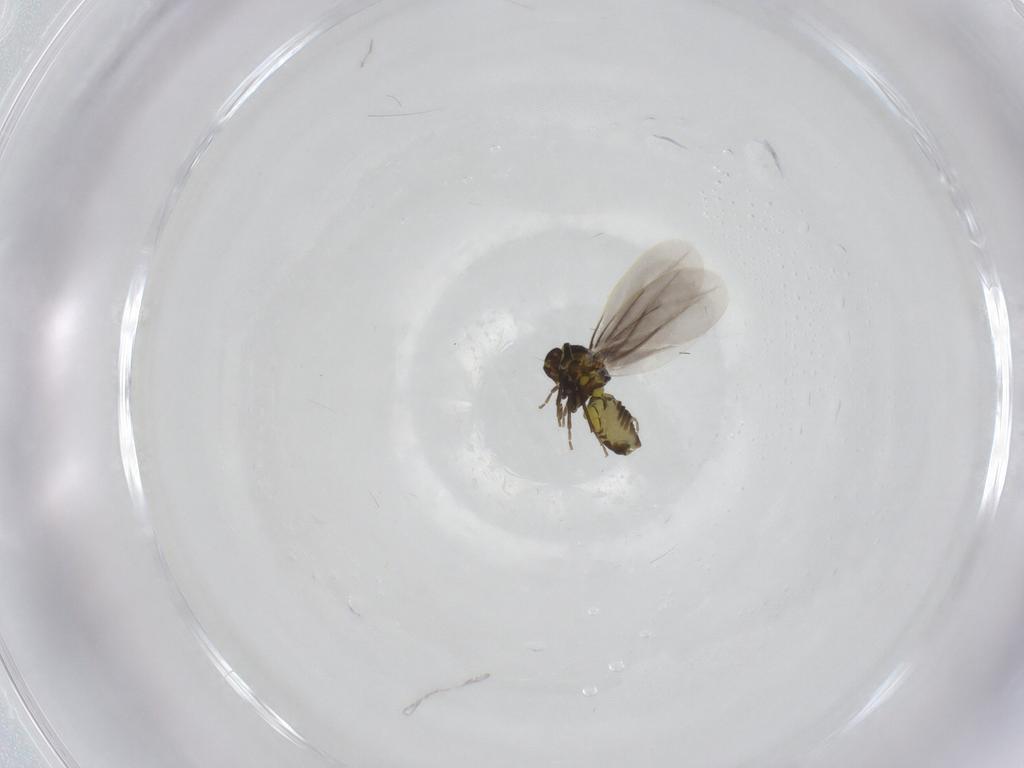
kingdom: Animalia
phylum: Arthropoda
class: Insecta
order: Hemiptera
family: Aleyrodidae
